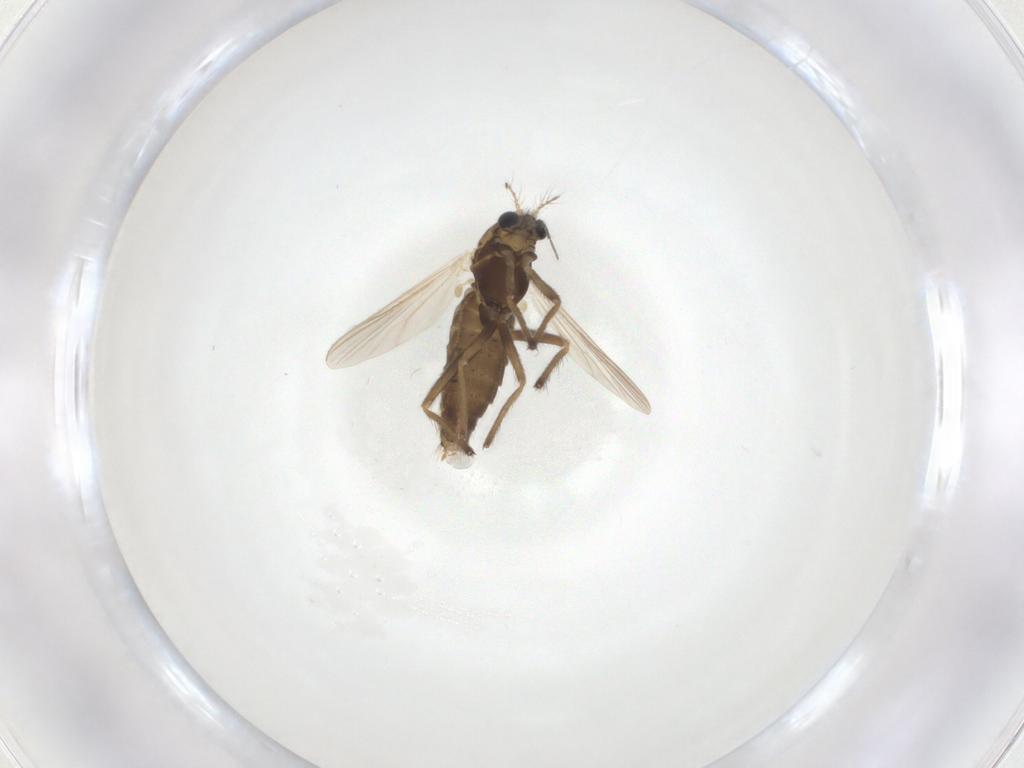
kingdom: Animalia
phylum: Arthropoda
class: Insecta
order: Diptera
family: Chironomidae
